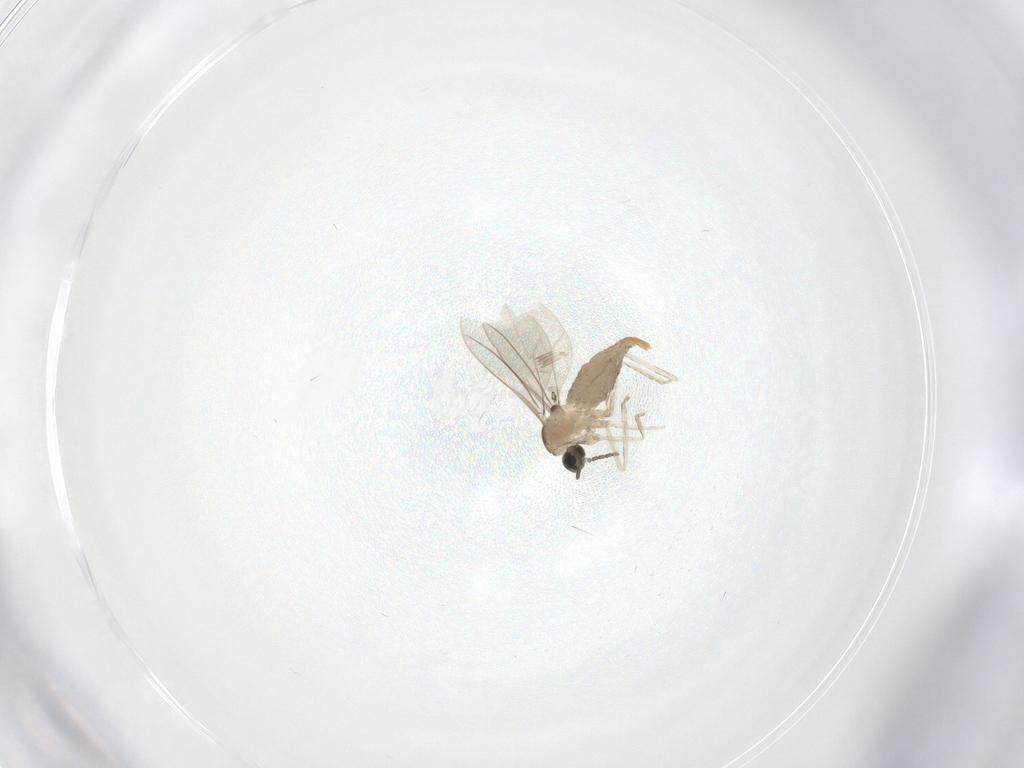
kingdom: Animalia
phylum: Arthropoda
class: Insecta
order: Diptera
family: Cecidomyiidae
